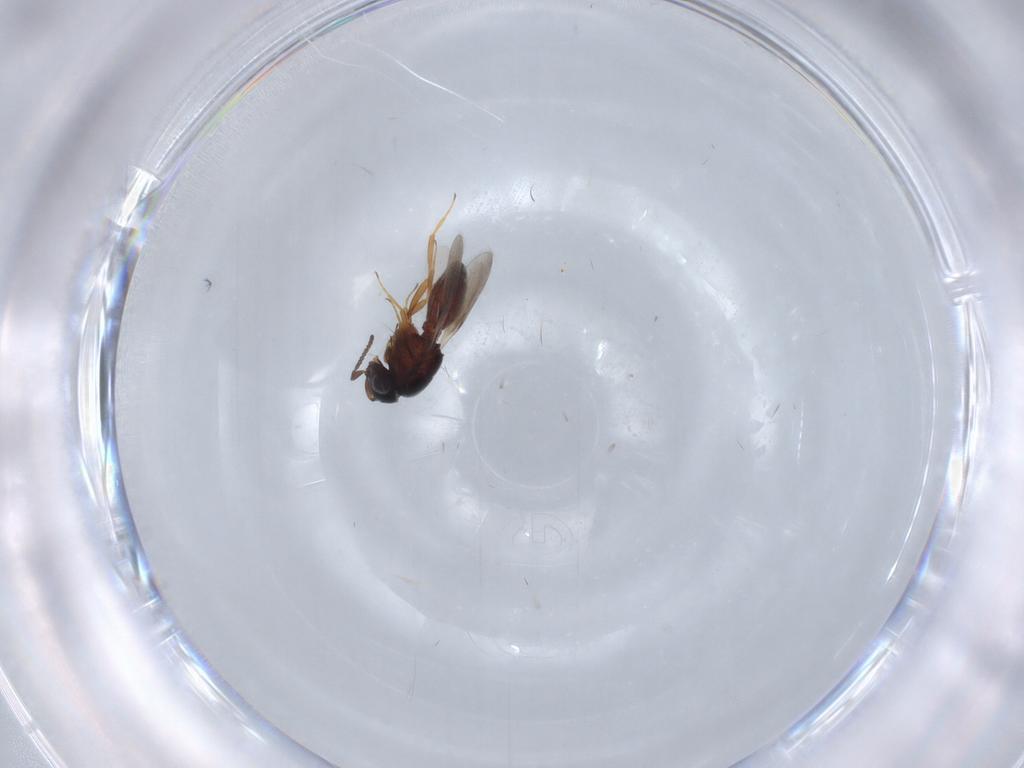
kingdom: Animalia
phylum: Arthropoda
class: Insecta
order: Hymenoptera
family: Scelionidae
